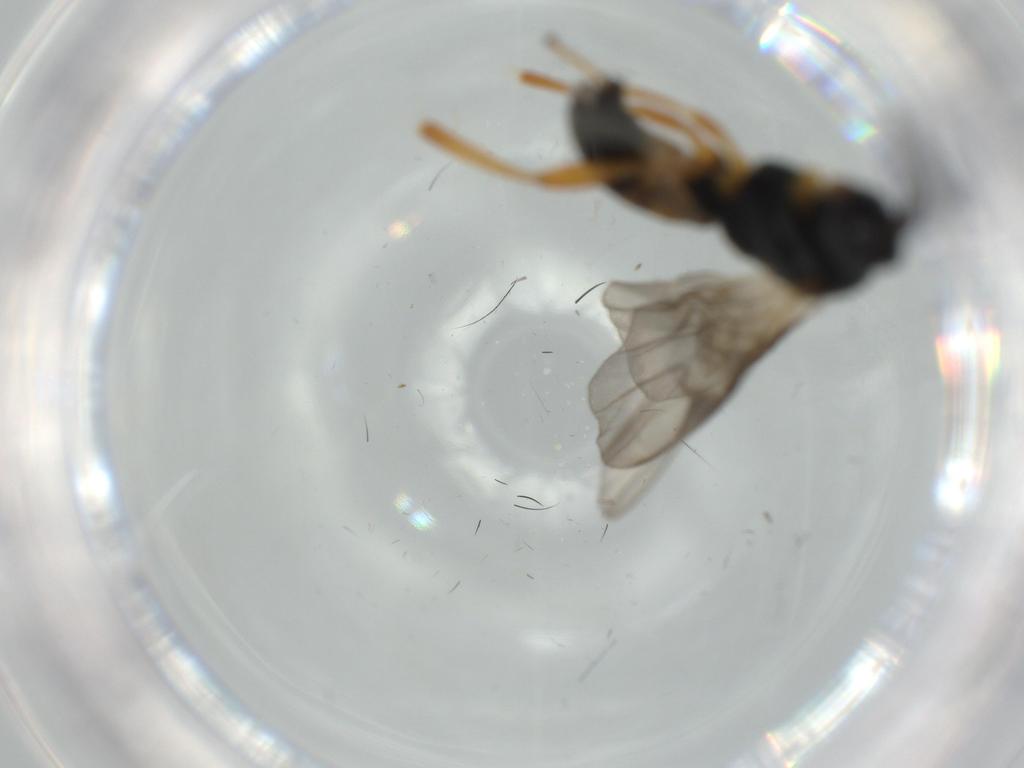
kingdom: Animalia
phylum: Arthropoda
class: Insecta
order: Hymenoptera
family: Braconidae
